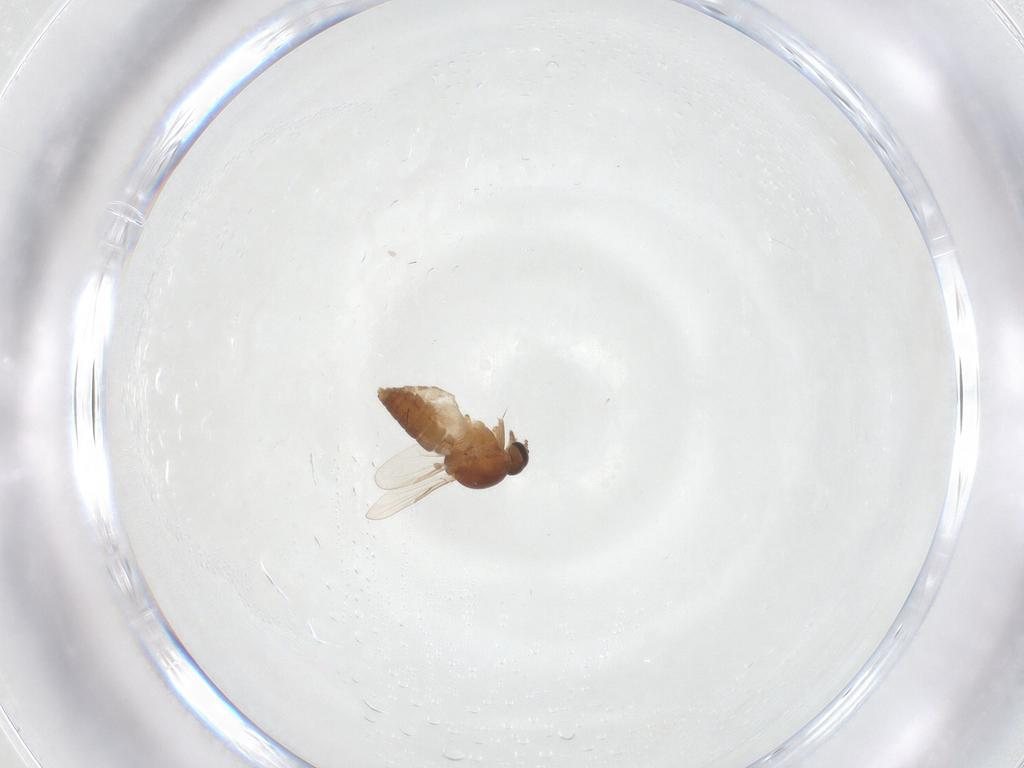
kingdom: Animalia
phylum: Arthropoda
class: Insecta
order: Diptera
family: Ceratopogonidae
